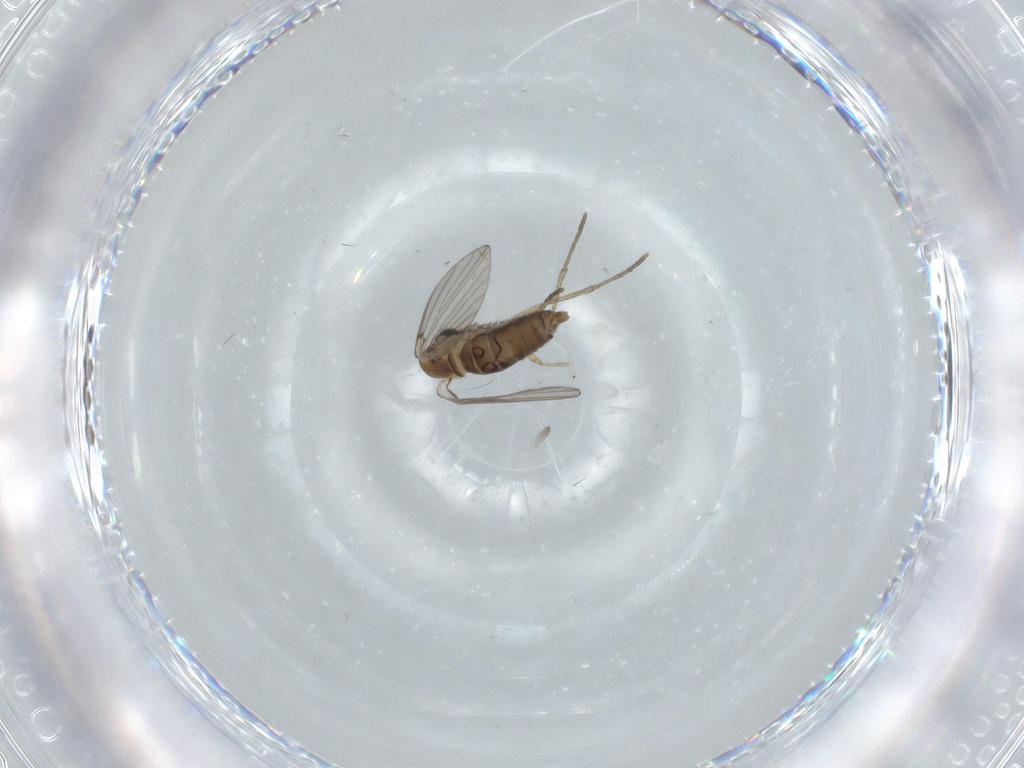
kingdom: Animalia
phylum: Arthropoda
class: Insecta
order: Diptera
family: Psychodidae
